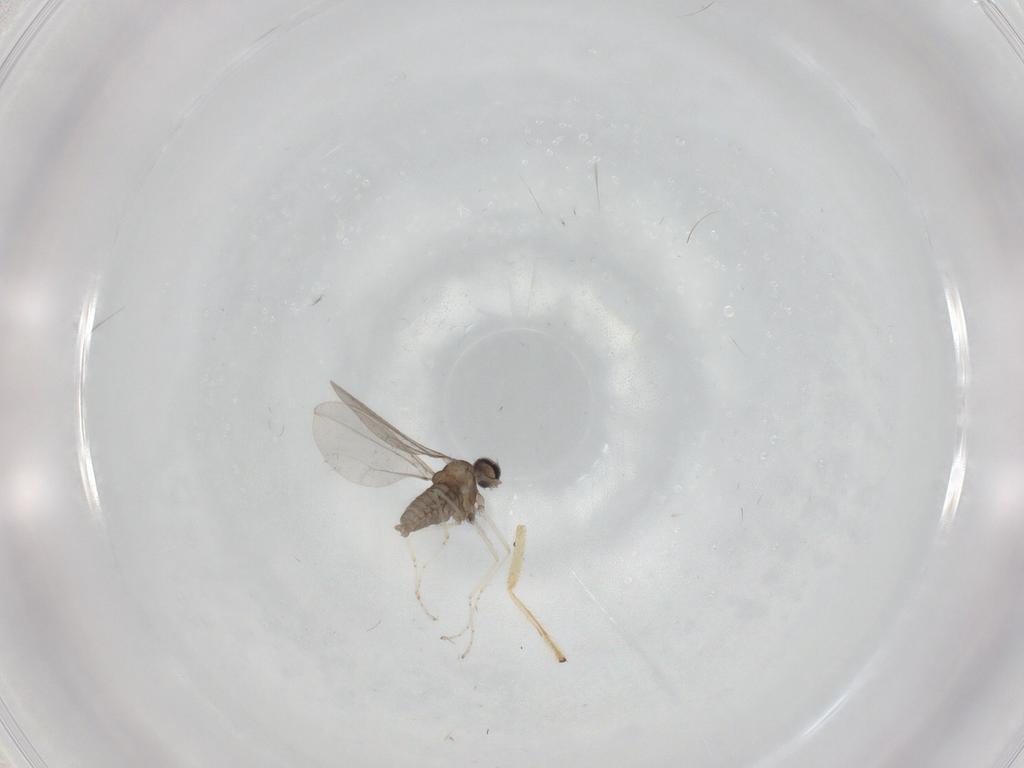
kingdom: Animalia
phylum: Arthropoda
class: Insecta
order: Diptera
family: Cecidomyiidae
